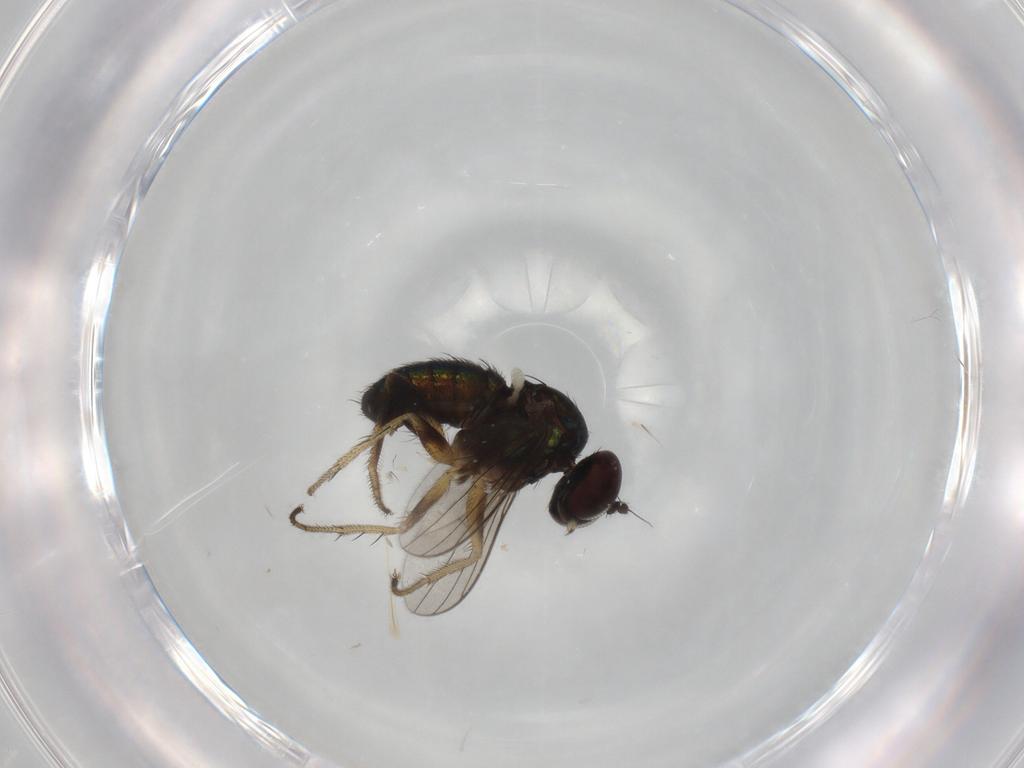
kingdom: Animalia
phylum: Arthropoda
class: Insecta
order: Diptera
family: Dolichopodidae
